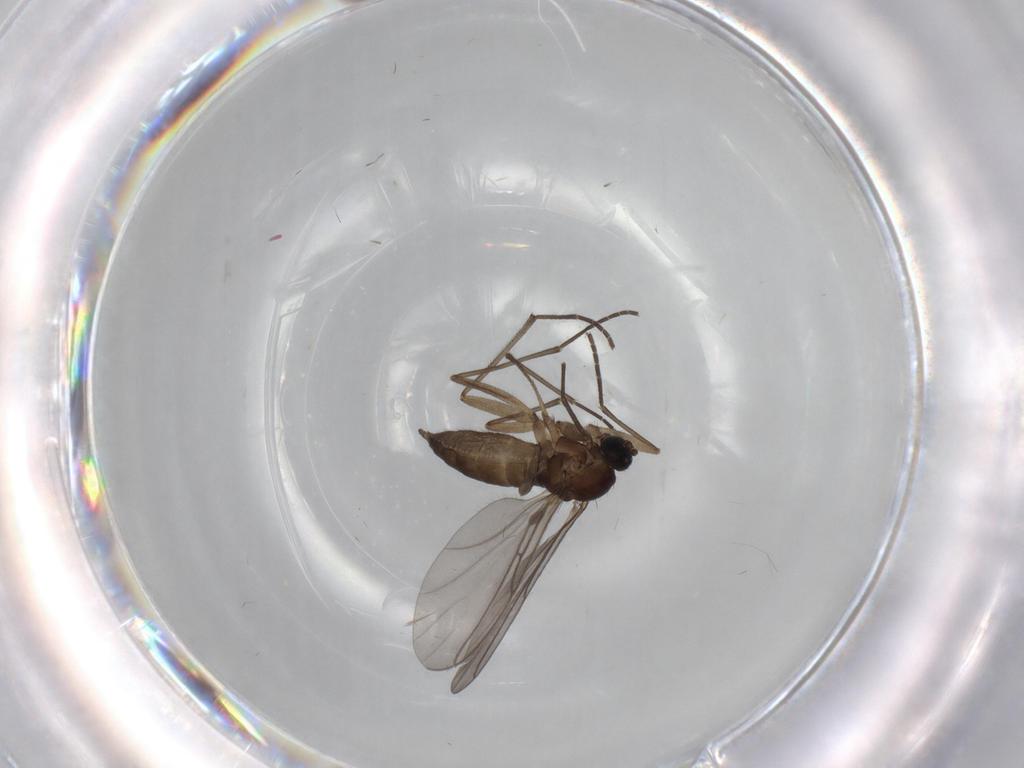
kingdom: Animalia
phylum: Arthropoda
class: Insecta
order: Diptera
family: Sciaridae
